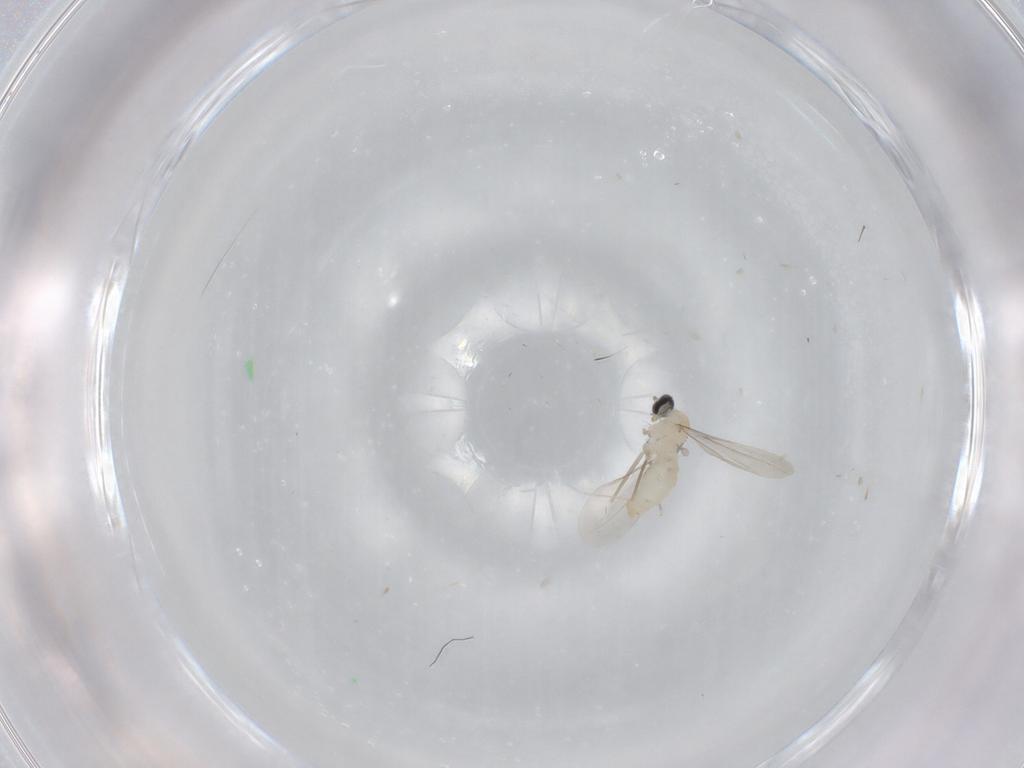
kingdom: Animalia
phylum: Arthropoda
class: Insecta
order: Diptera
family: Cecidomyiidae
